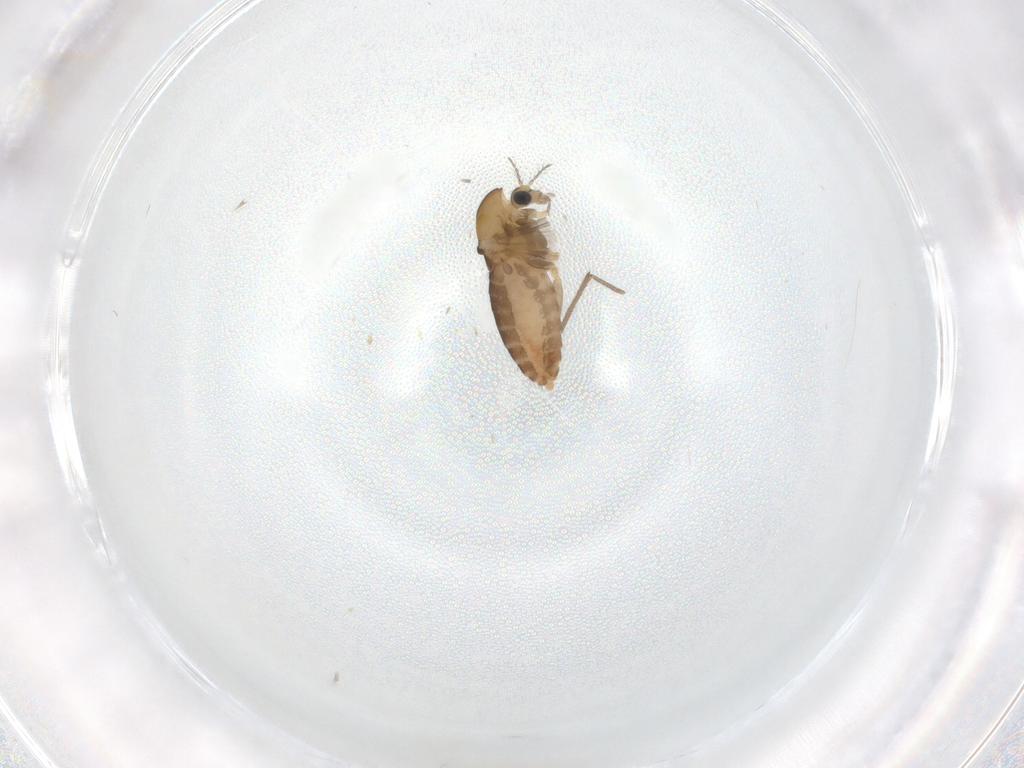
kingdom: Animalia
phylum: Arthropoda
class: Insecta
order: Diptera
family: Chironomidae
